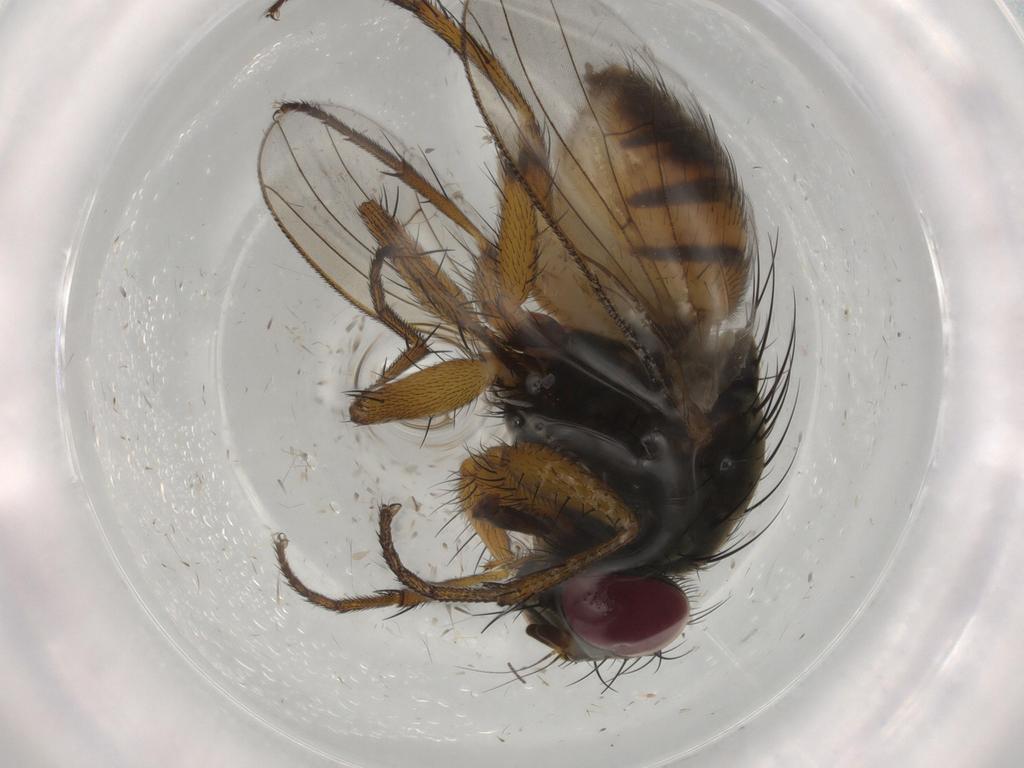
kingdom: Animalia
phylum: Arthropoda
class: Insecta
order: Diptera
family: Muscidae
